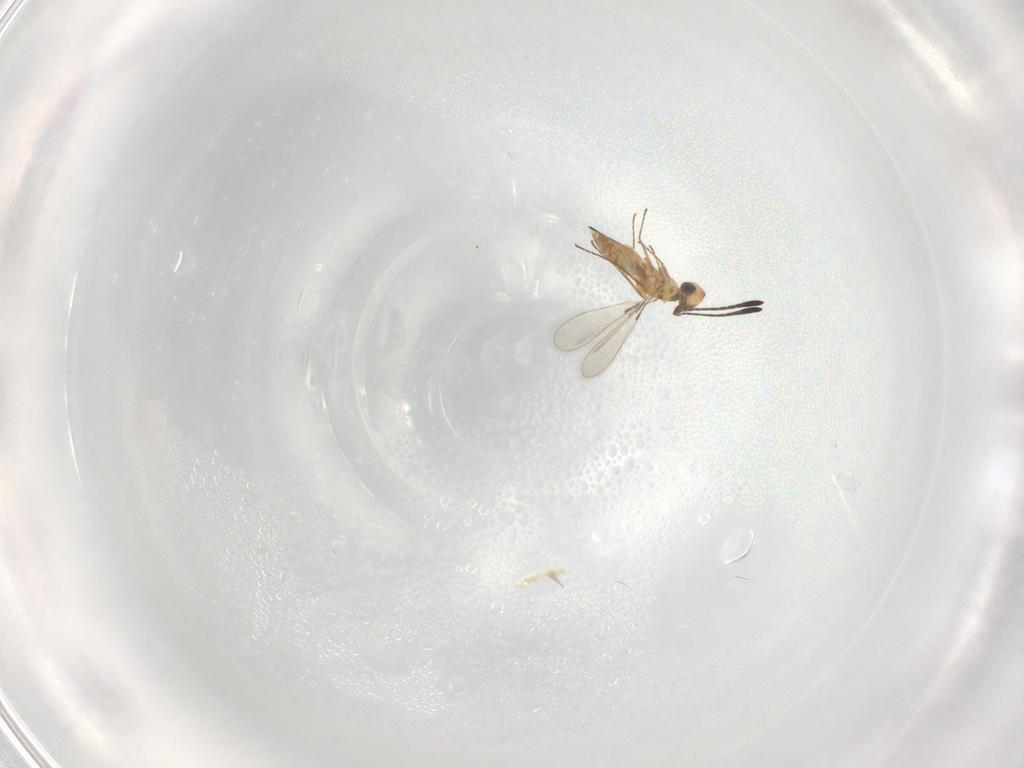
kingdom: Animalia
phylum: Arthropoda
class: Insecta
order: Hymenoptera
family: Mymaridae
